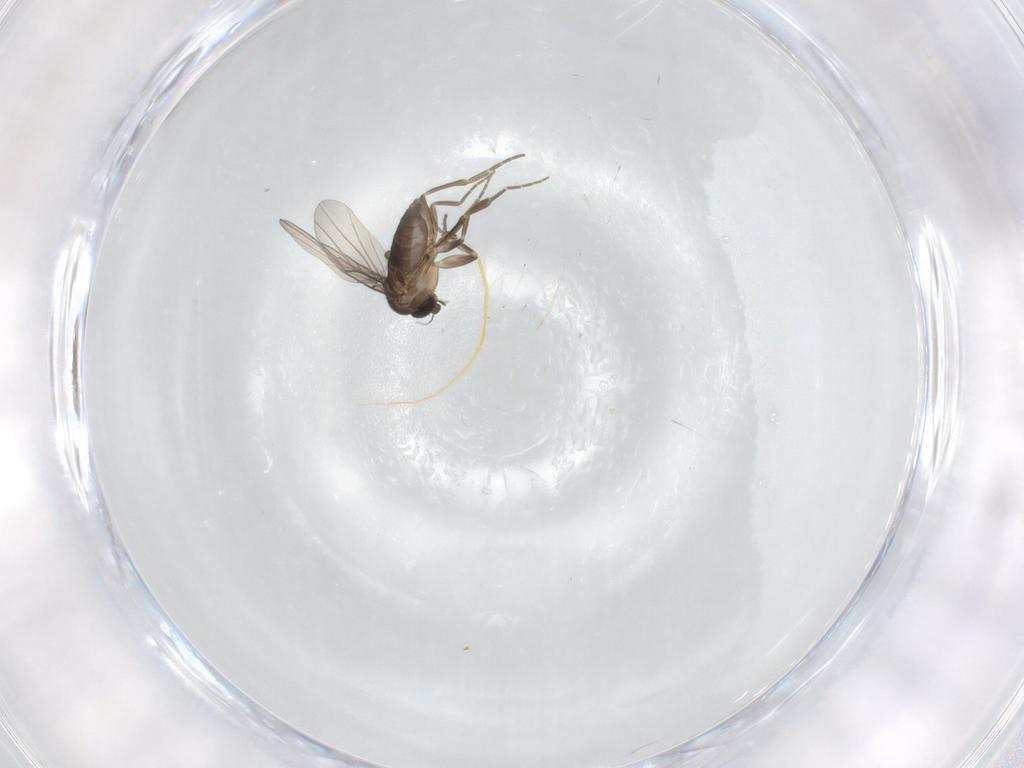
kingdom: Animalia
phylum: Arthropoda
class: Insecta
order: Diptera
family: Phoridae
